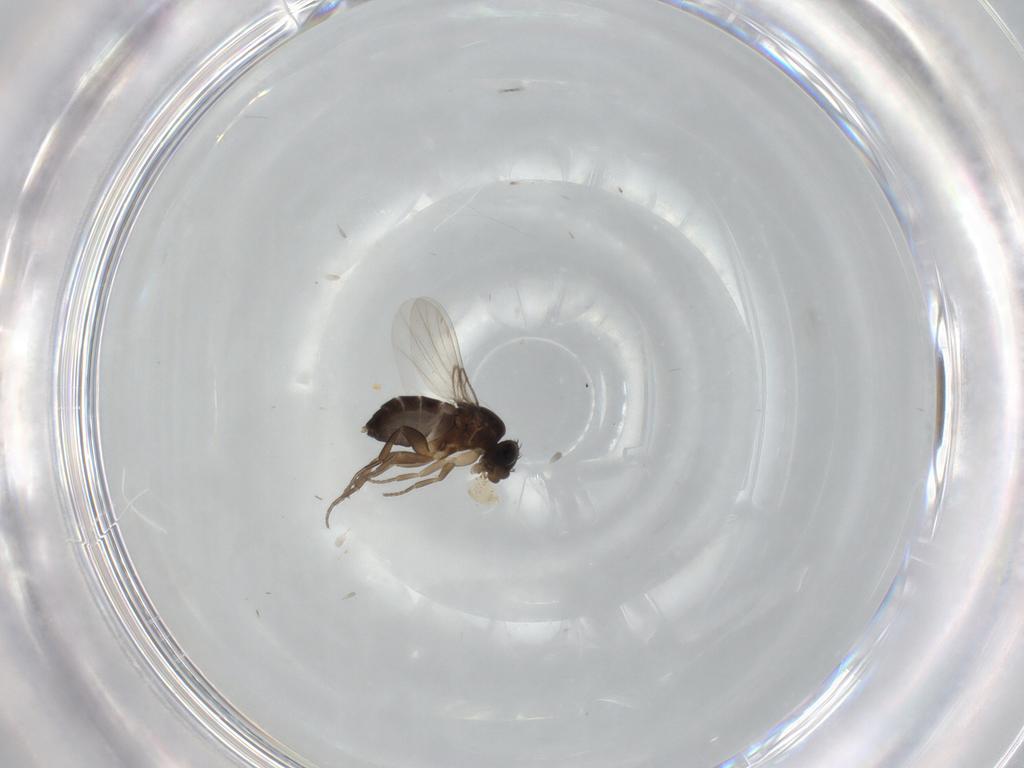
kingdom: Animalia
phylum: Arthropoda
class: Insecta
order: Diptera
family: Phoridae
